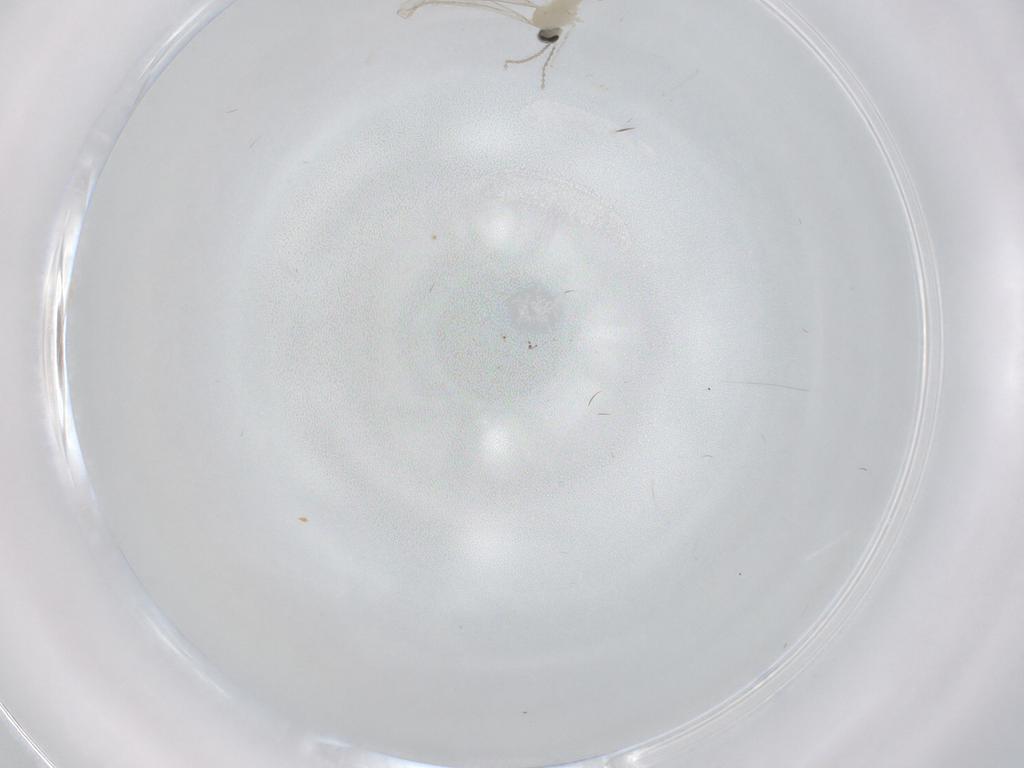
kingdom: Animalia
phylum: Arthropoda
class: Insecta
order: Diptera
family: Cecidomyiidae
